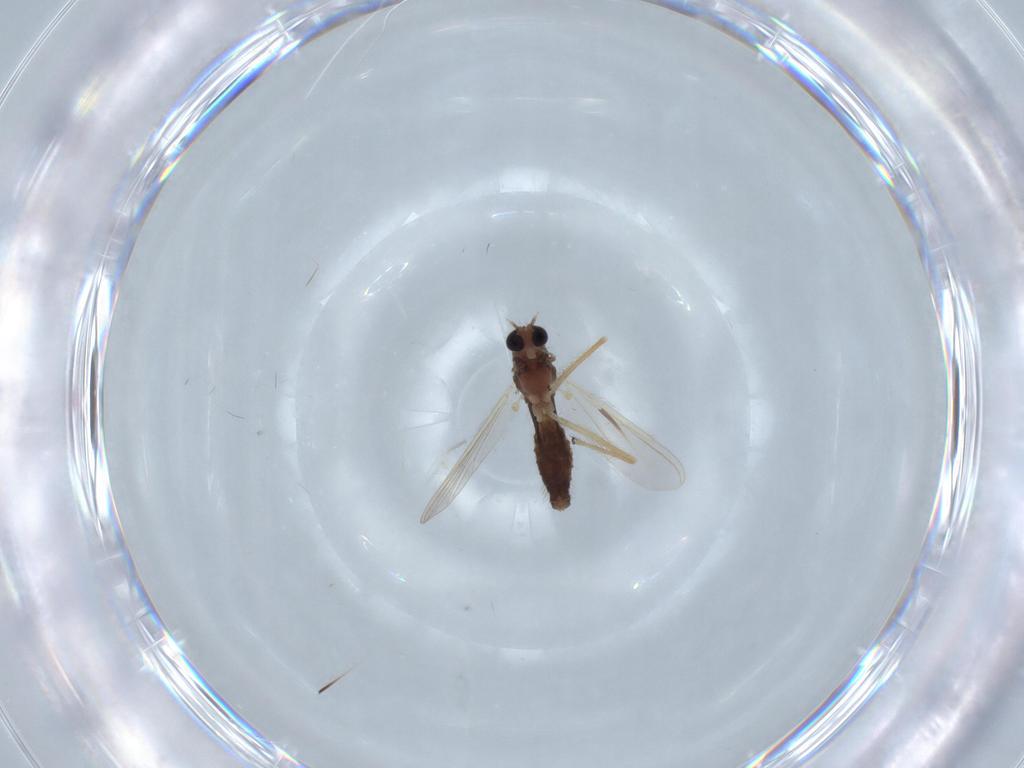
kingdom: Animalia
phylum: Arthropoda
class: Insecta
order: Diptera
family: Chironomidae
